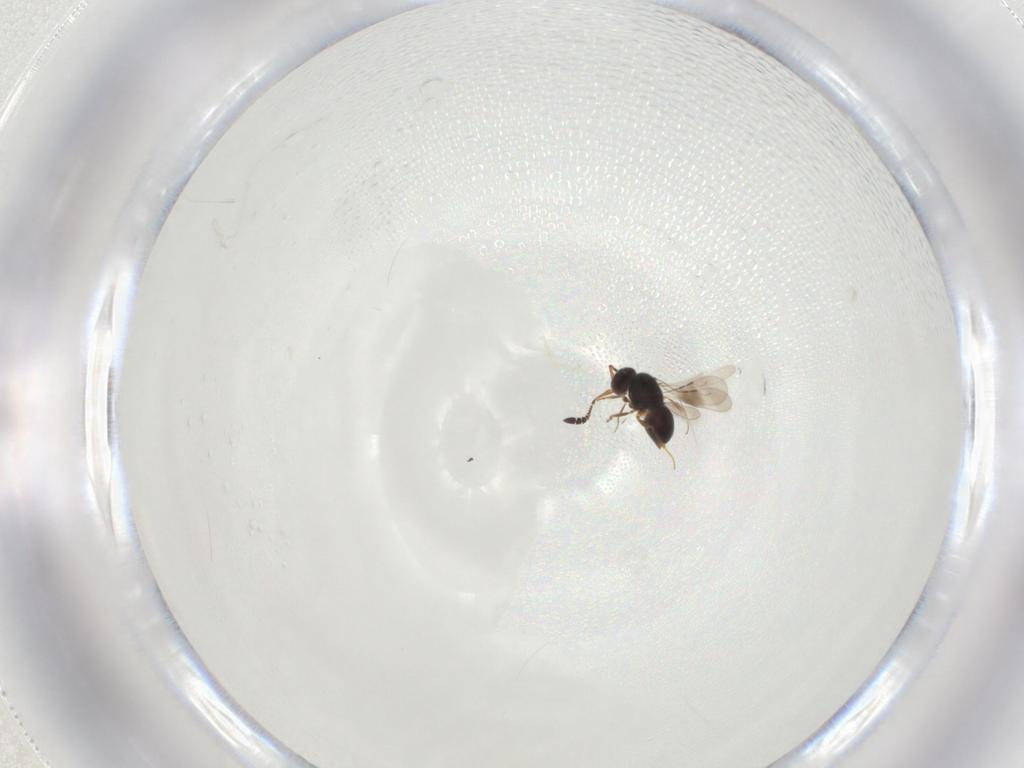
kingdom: Animalia
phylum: Arthropoda
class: Insecta
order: Hymenoptera
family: Ceraphronidae
